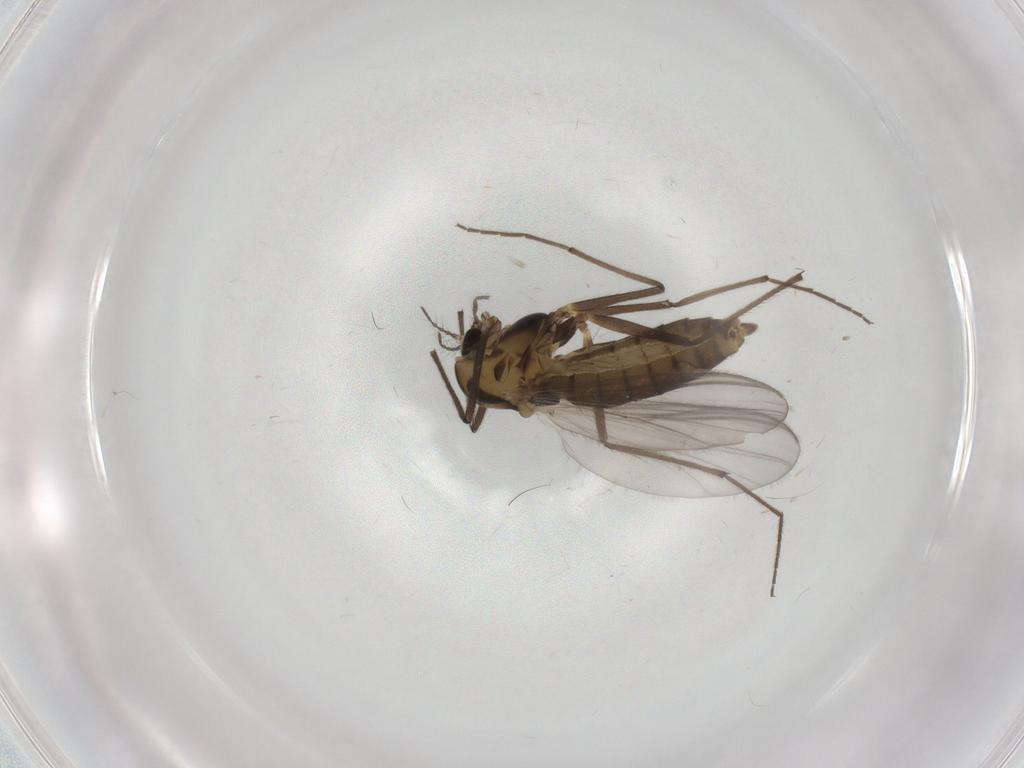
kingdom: Animalia
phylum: Arthropoda
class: Insecta
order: Diptera
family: Chironomidae
